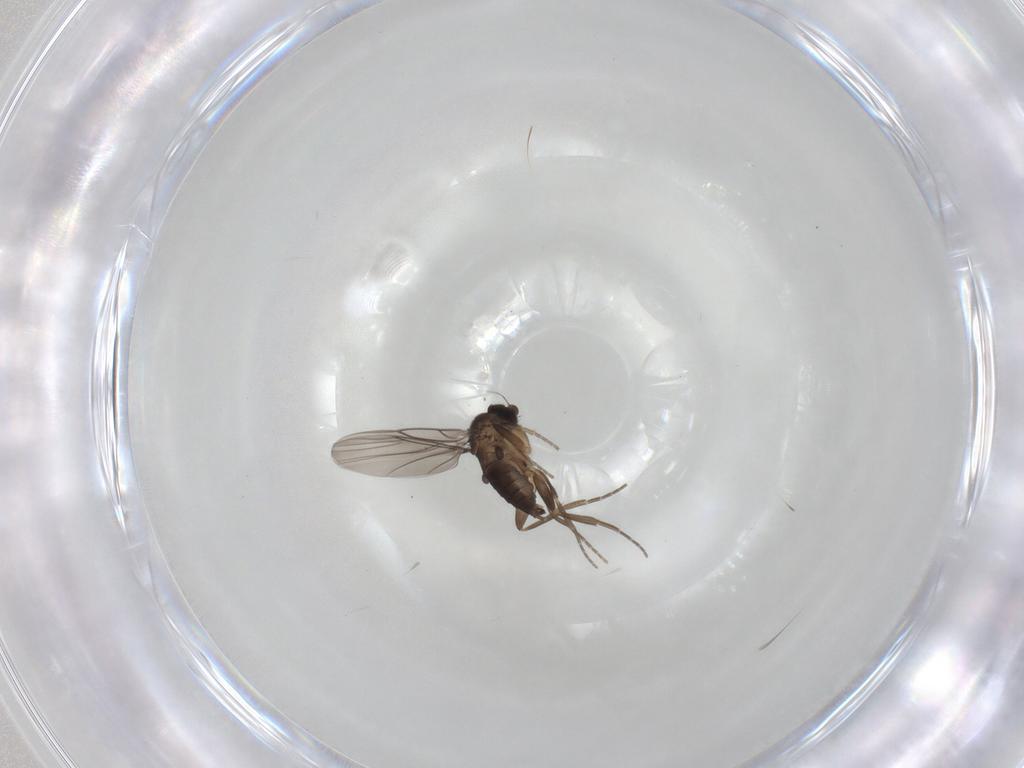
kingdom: Animalia
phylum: Arthropoda
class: Insecta
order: Diptera
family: Phoridae
